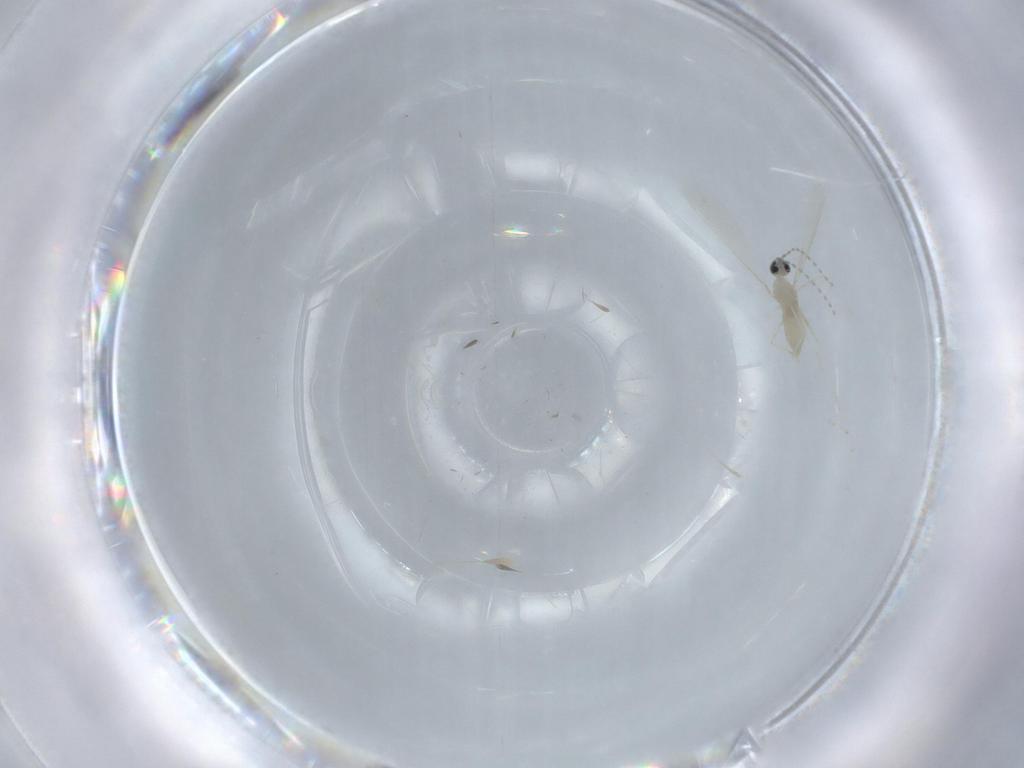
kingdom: Animalia
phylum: Arthropoda
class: Insecta
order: Diptera
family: Cecidomyiidae
